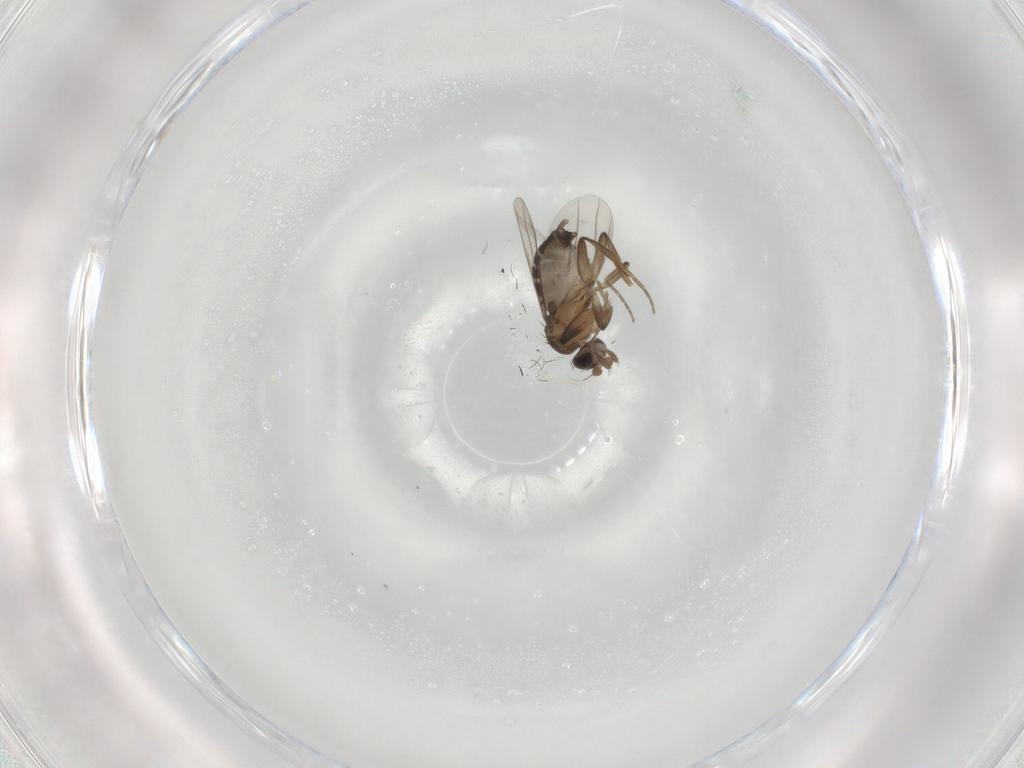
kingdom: Animalia
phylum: Arthropoda
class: Insecta
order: Diptera
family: Phoridae
